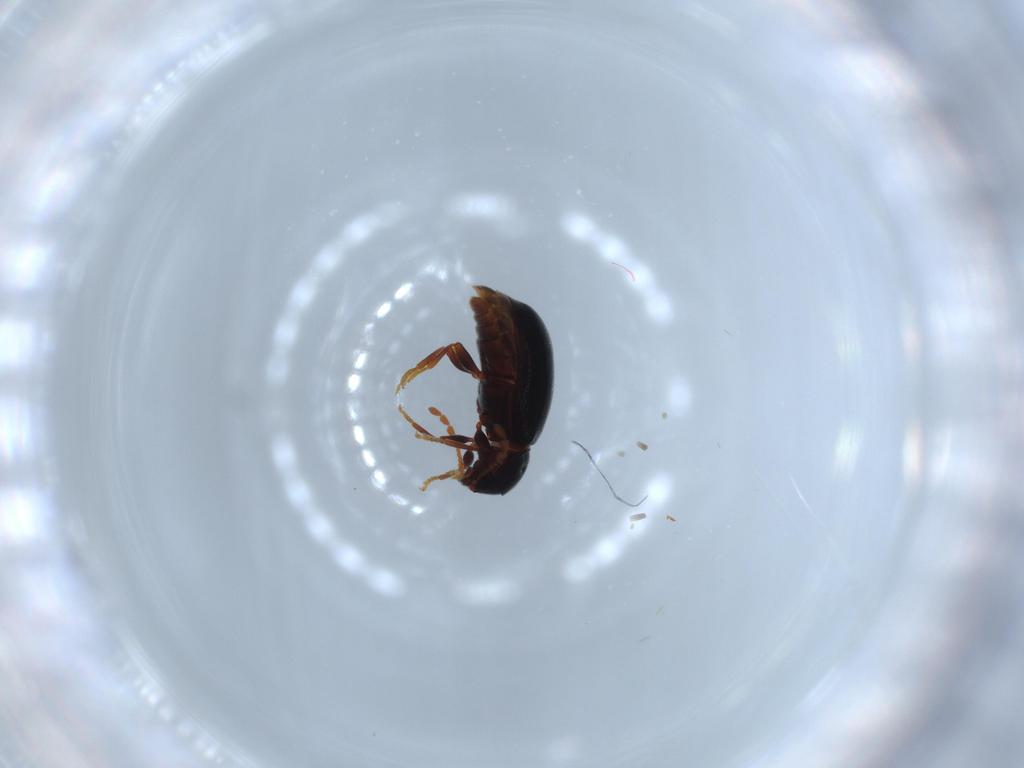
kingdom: Animalia
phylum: Arthropoda
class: Insecta
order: Coleoptera
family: Ptinidae
